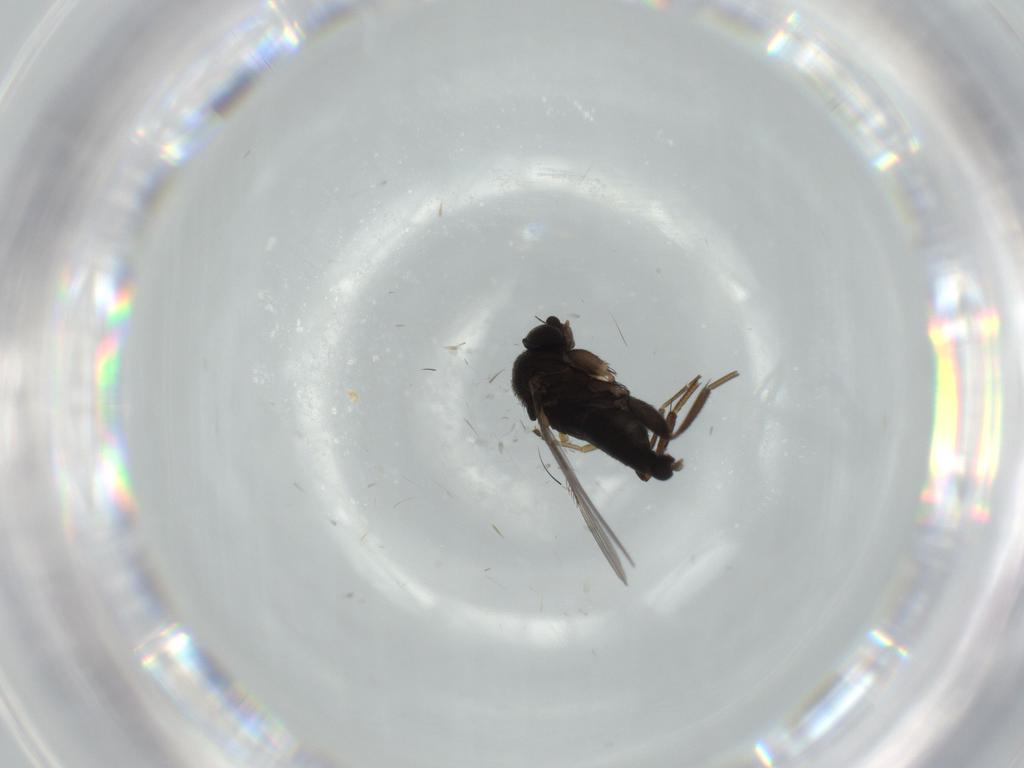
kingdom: Animalia
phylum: Arthropoda
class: Insecta
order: Diptera
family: Phoridae
